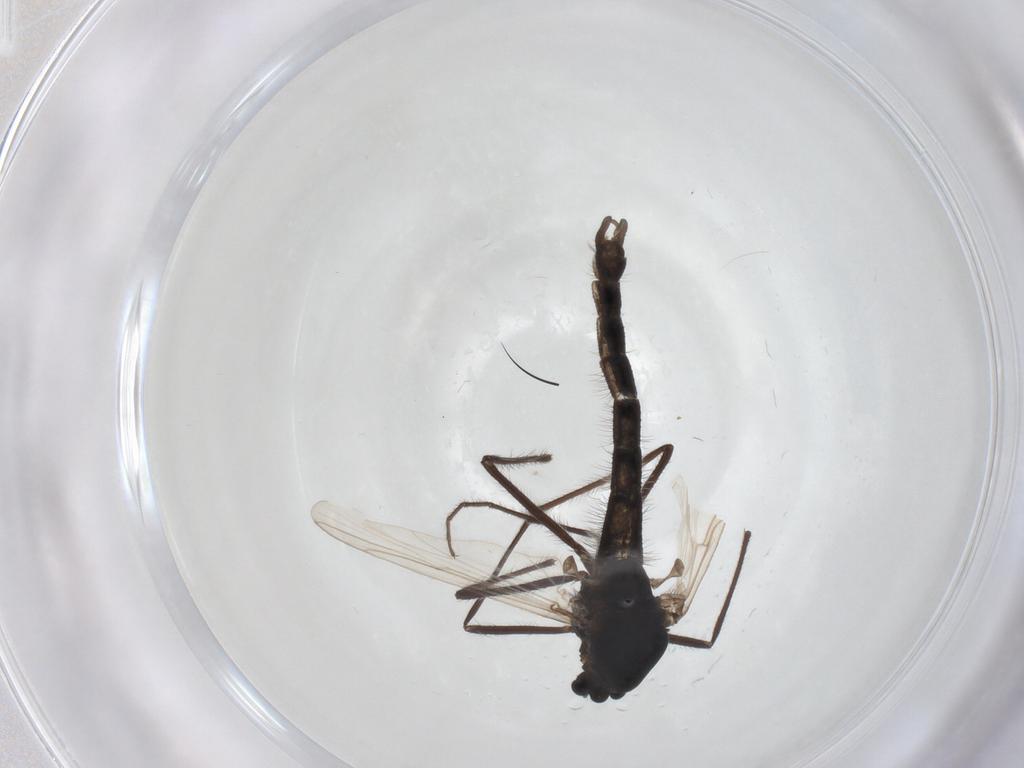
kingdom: Animalia
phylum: Arthropoda
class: Insecta
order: Diptera
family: Chironomidae
